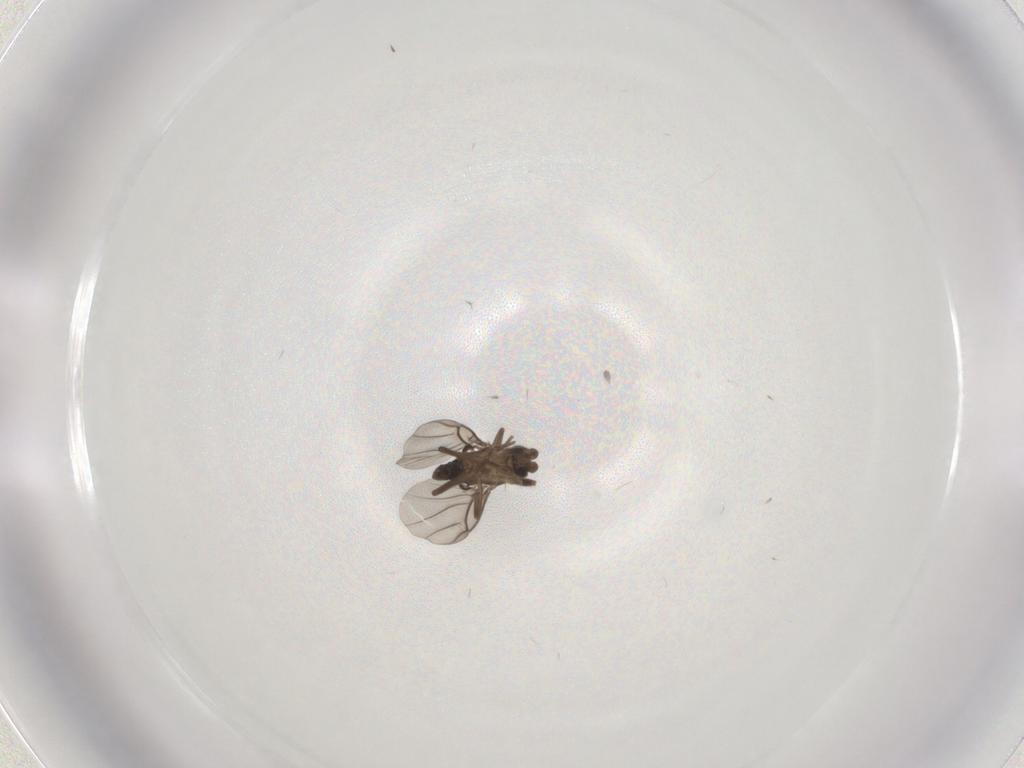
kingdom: Animalia
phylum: Arthropoda
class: Insecta
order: Diptera
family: Phoridae
